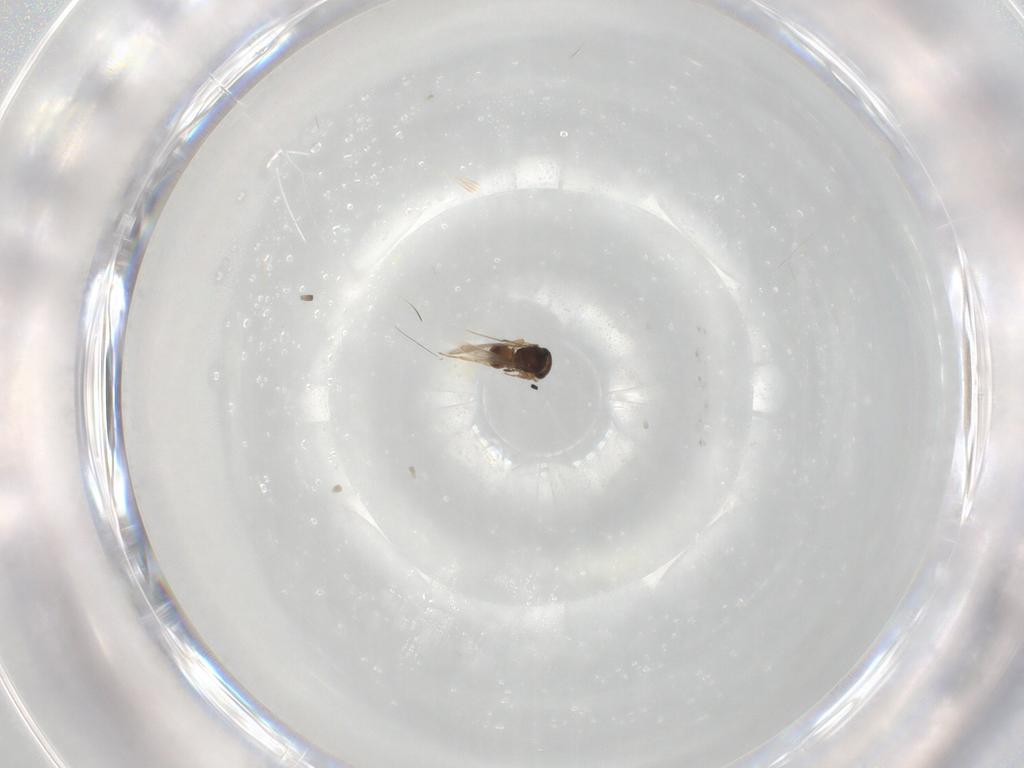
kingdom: Animalia
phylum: Arthropoda
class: Insecta
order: Hymenoptera
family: Scelionidae
